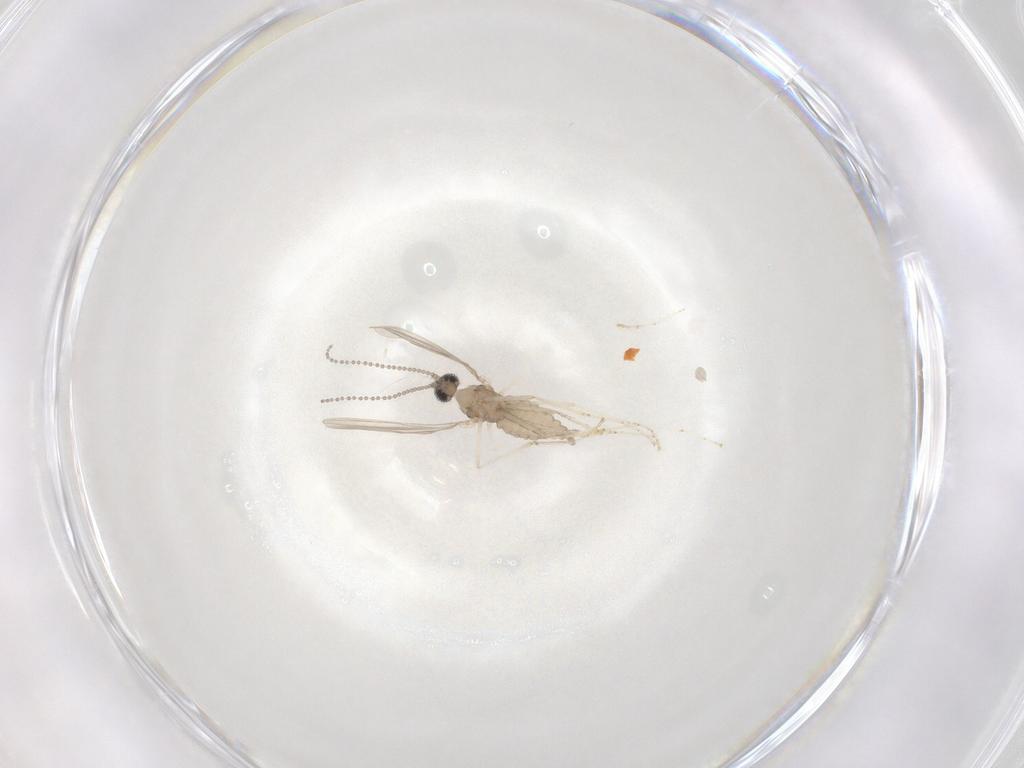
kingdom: Animalia
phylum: Arthropoda
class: Insecta
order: Diptera
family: Cecidomyiidae
